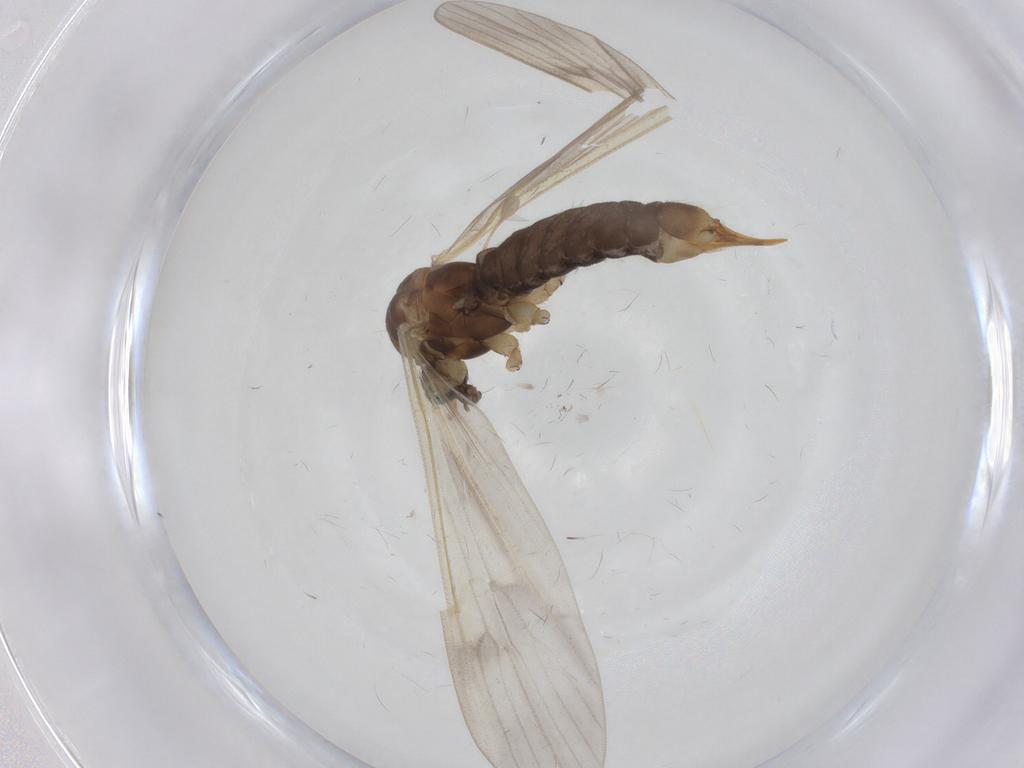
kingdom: Animalia
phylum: Arthropoda
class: Insecta
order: Diptera
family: Limoniidae
